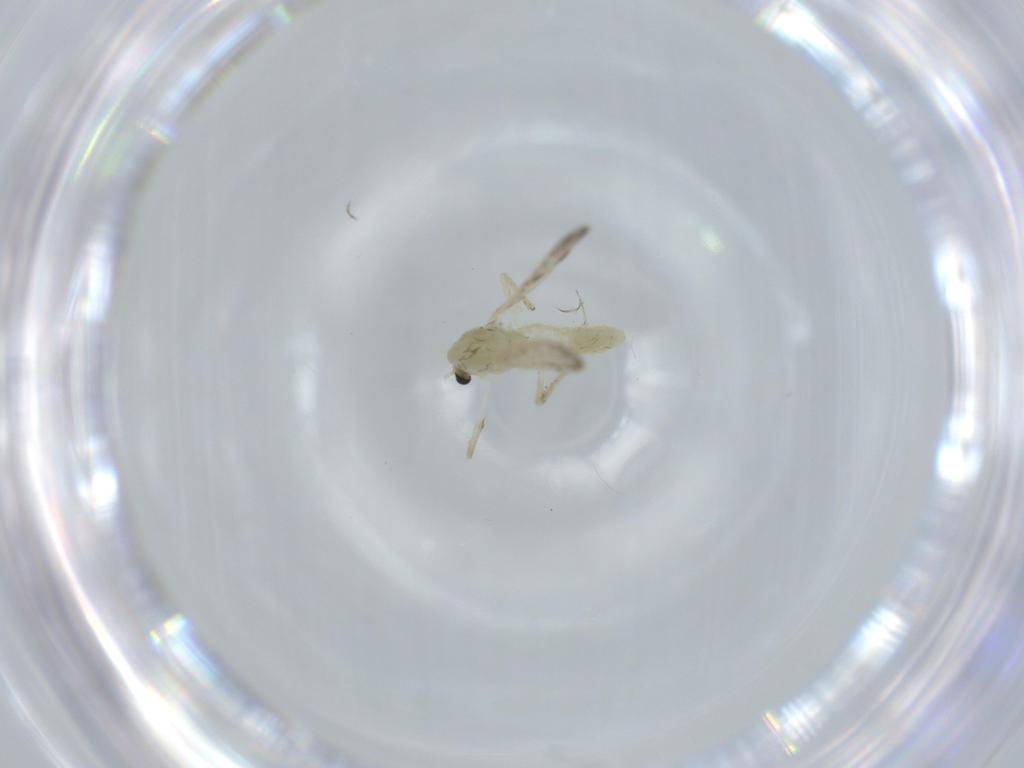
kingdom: Animalia
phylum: Arthropoda
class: Insecta
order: Diptera
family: Chironomidae
